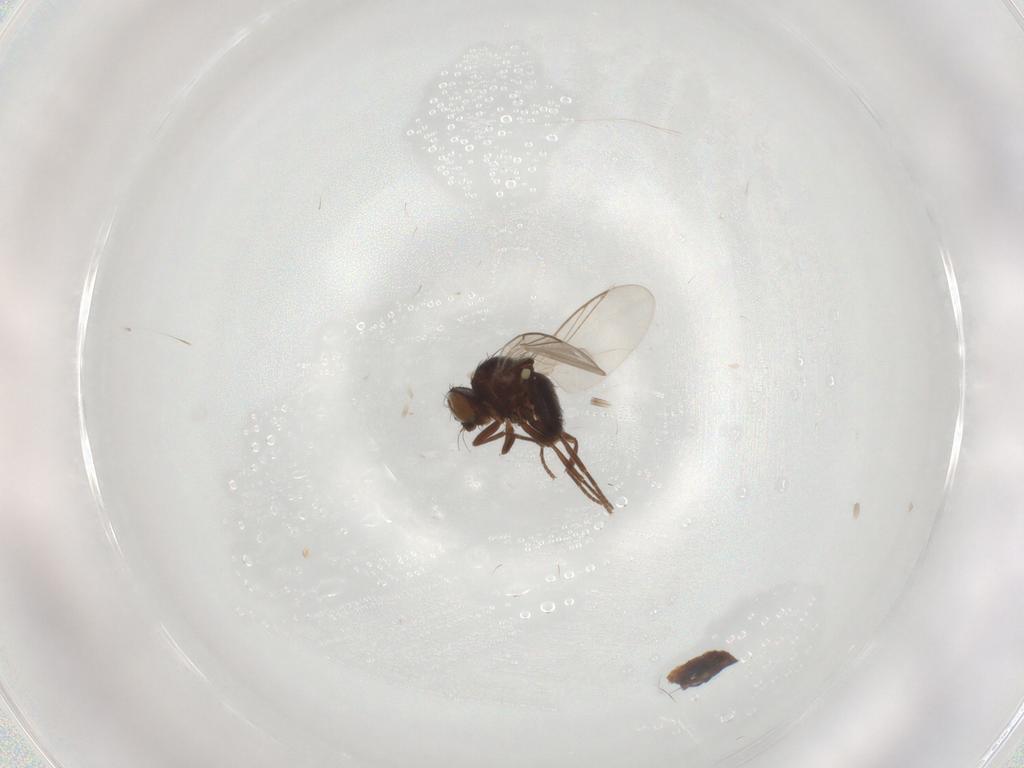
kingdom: Animalia
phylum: Arthropoda
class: Insecta
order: Diptera
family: Agromyzidae
